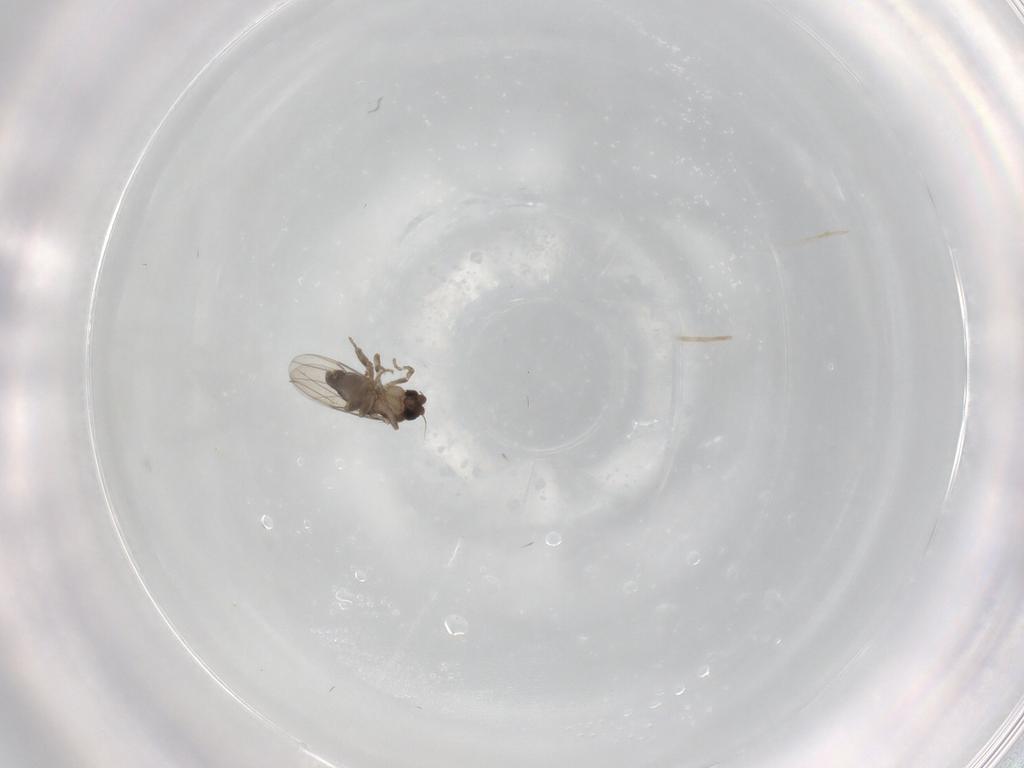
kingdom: Animalia
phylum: Arthropoda
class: Insecta
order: Diptera
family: Phoridae
